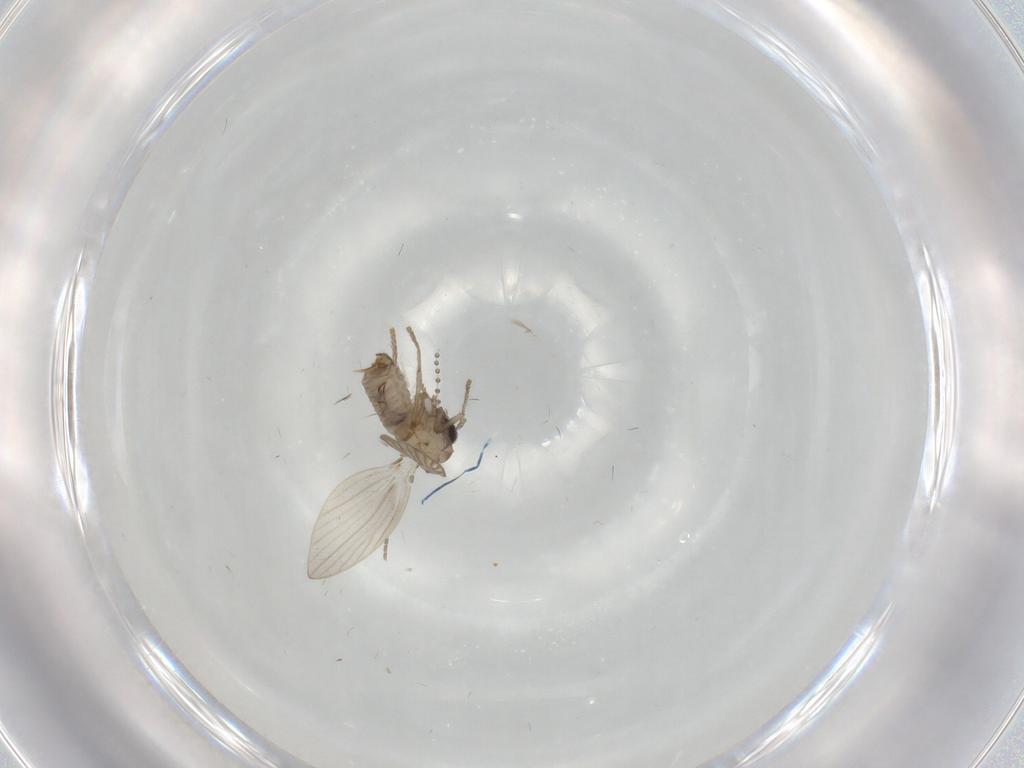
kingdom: Animalia
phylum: Arthropoda
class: Insecta
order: Diptera
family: Psychodidae
